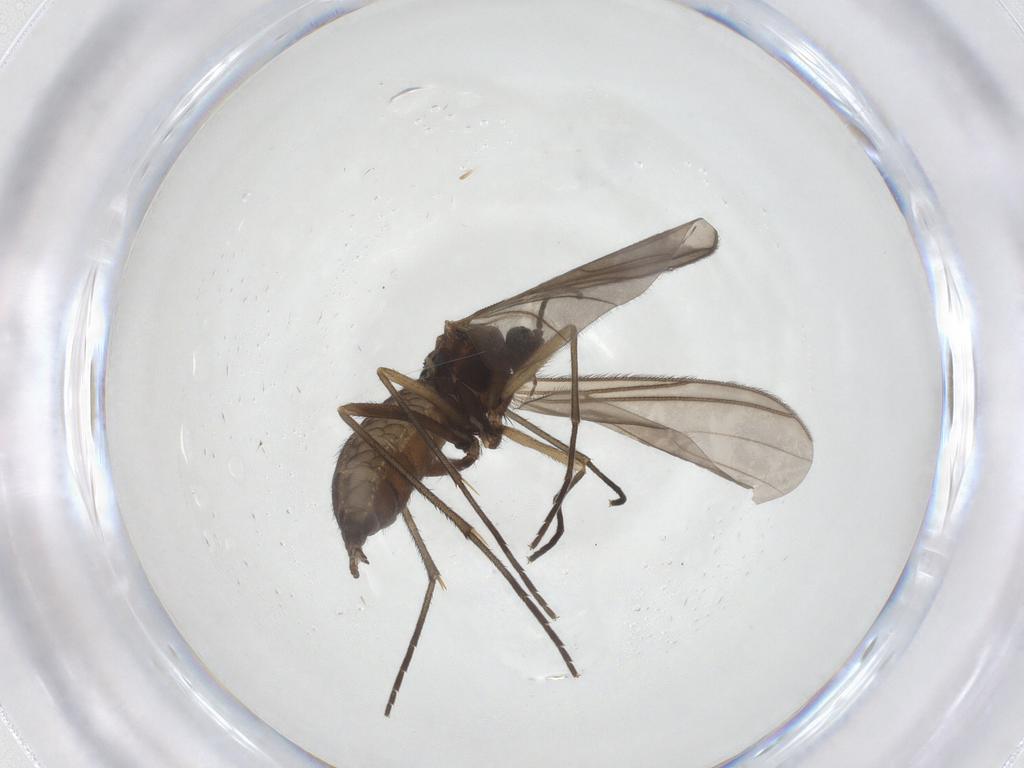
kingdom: Animalia
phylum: Arthropoda
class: Insecta
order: Diptera
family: Sciaridae
